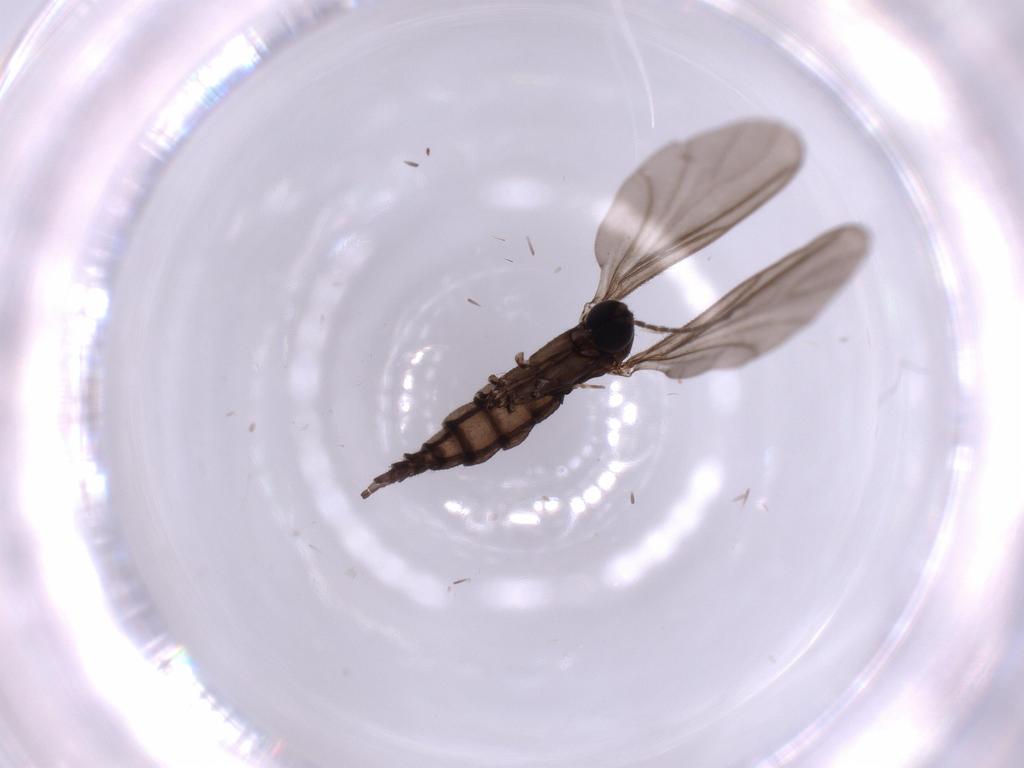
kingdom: Animalia
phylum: Arthropoda
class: Insecta
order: Diptera
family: Sciaridae
